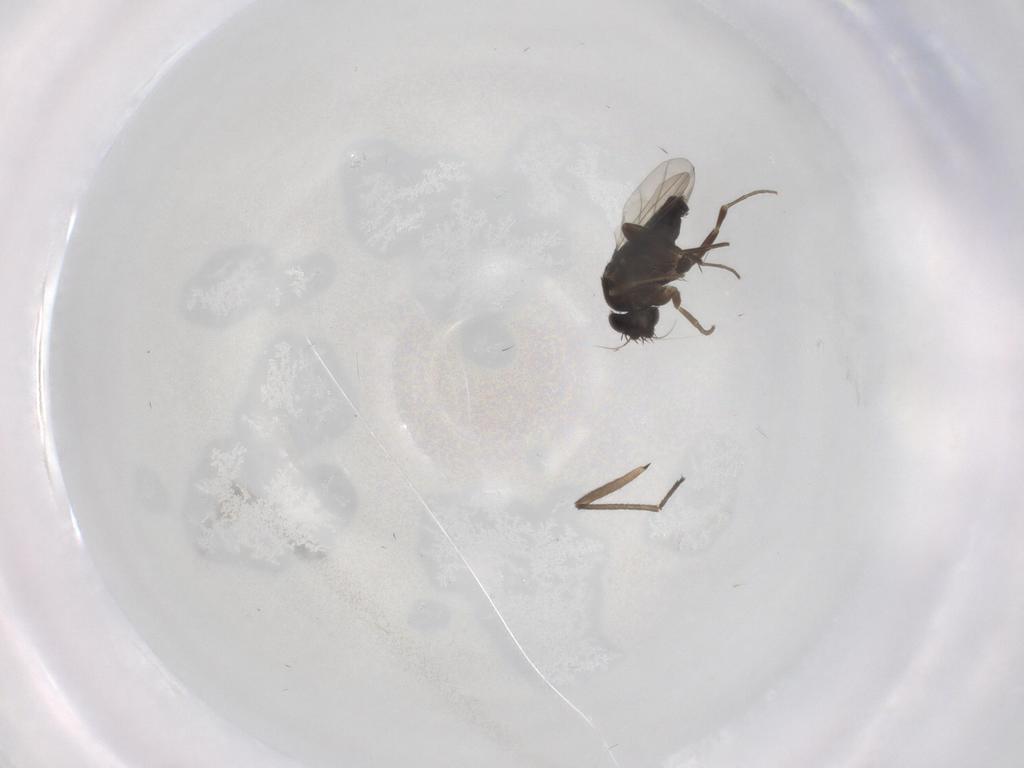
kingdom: Animalia
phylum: Arthropoda
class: Insecta
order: Diptera
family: Phoridae
